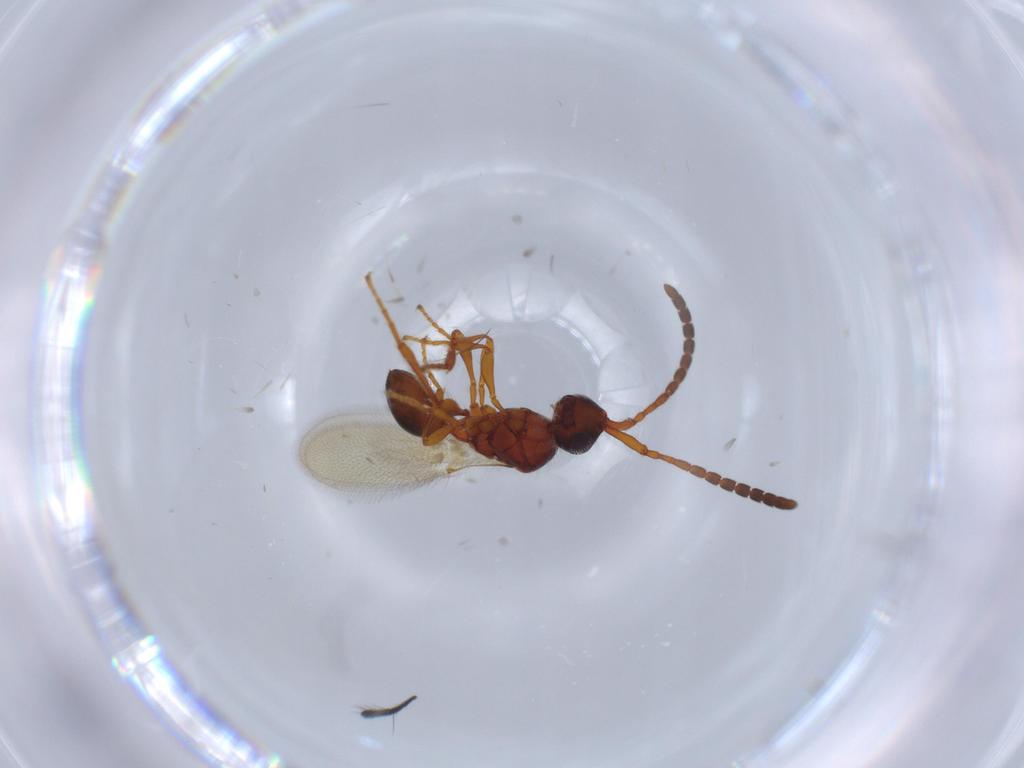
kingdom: Animalia
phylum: Arthropoda
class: Insecta
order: Hymenoptera
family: Diapriidae
